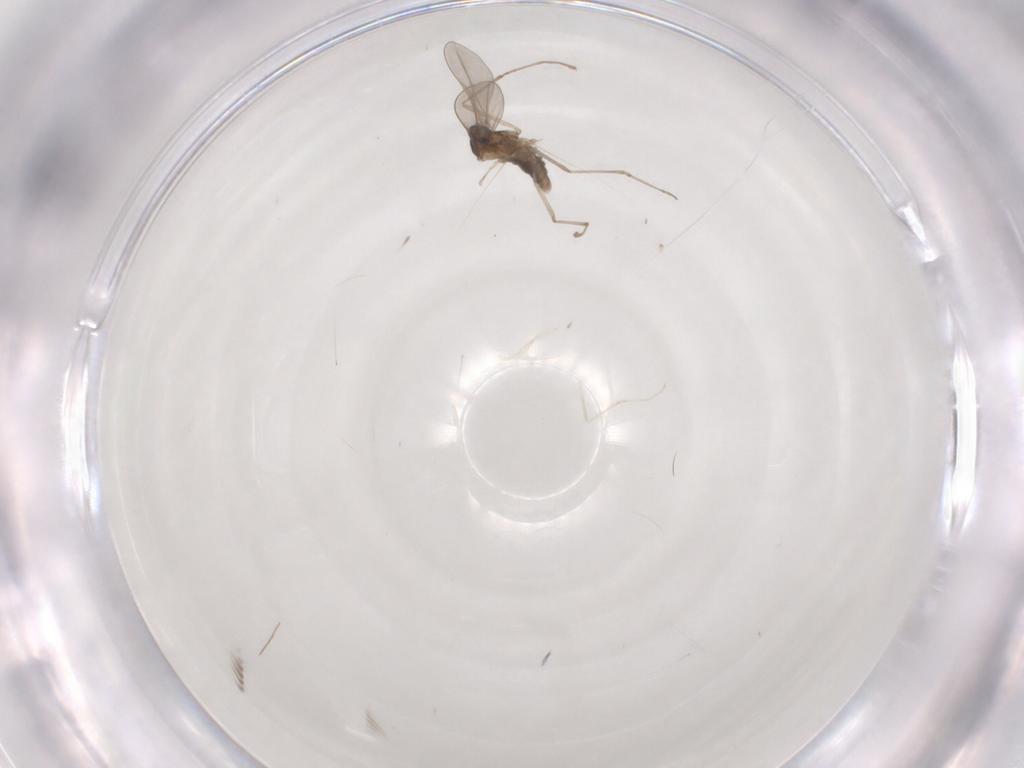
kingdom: Animalia
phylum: Arthropoda
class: Insecta
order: Diptera
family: Cecidomyiidae
